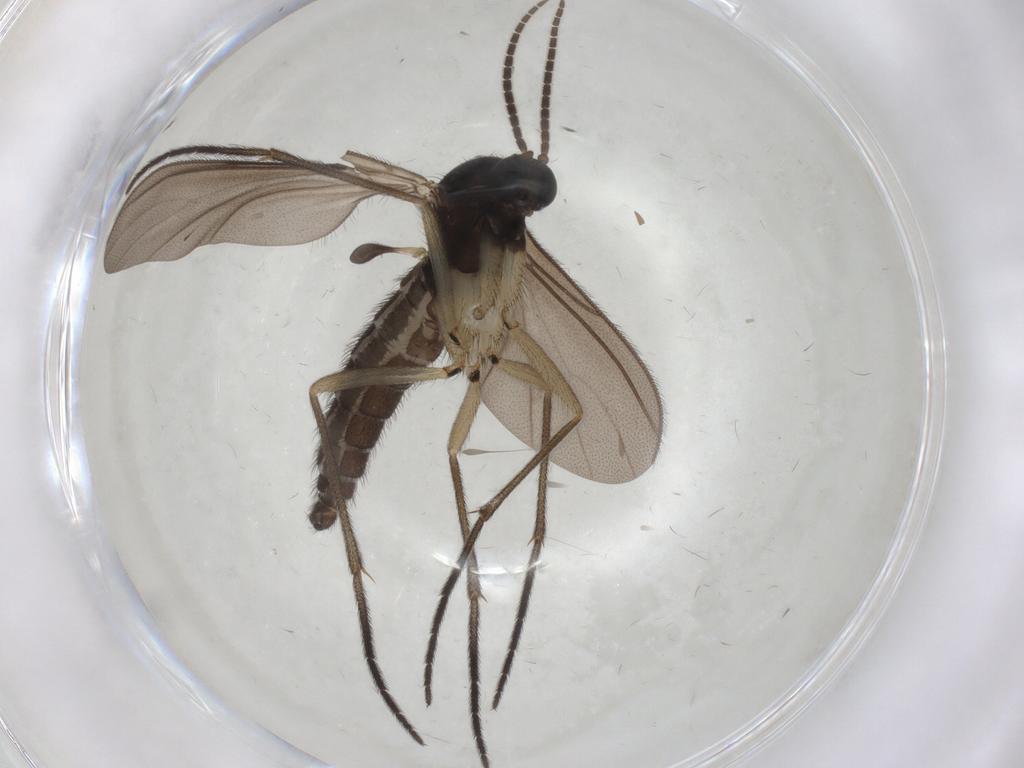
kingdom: Animalia
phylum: Arthropoda
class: Insecta
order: Diptera
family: Sciaridae
